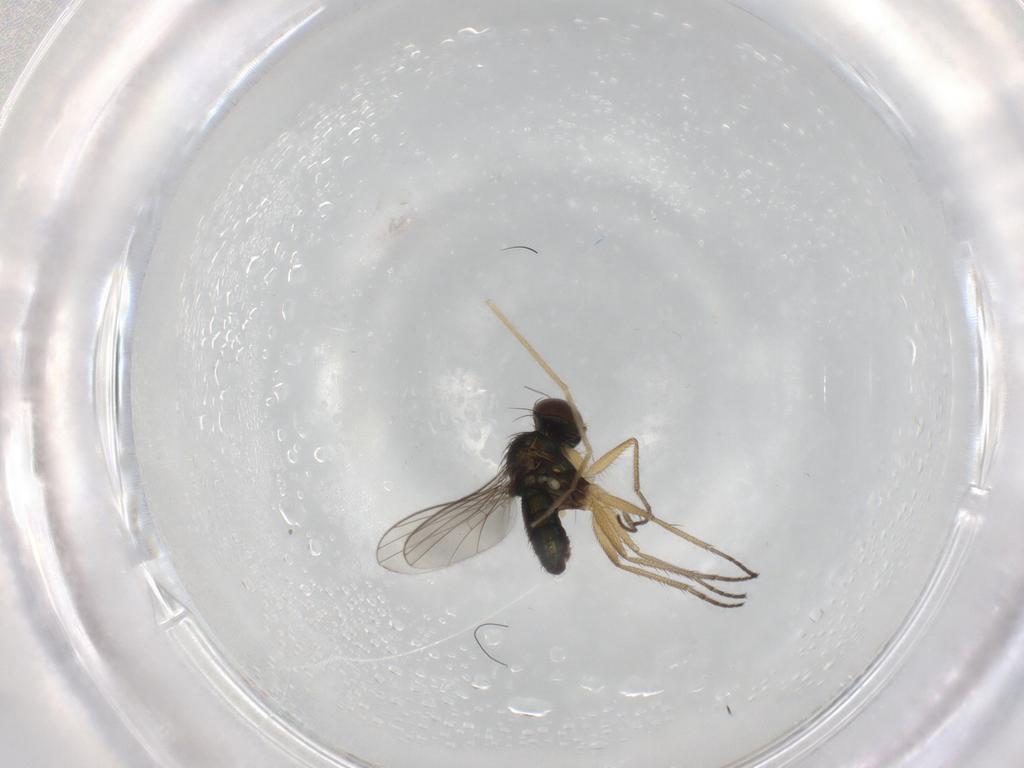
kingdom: Animalia
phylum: Arthropoda
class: Insecta
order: Diptera
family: Chironomidae
